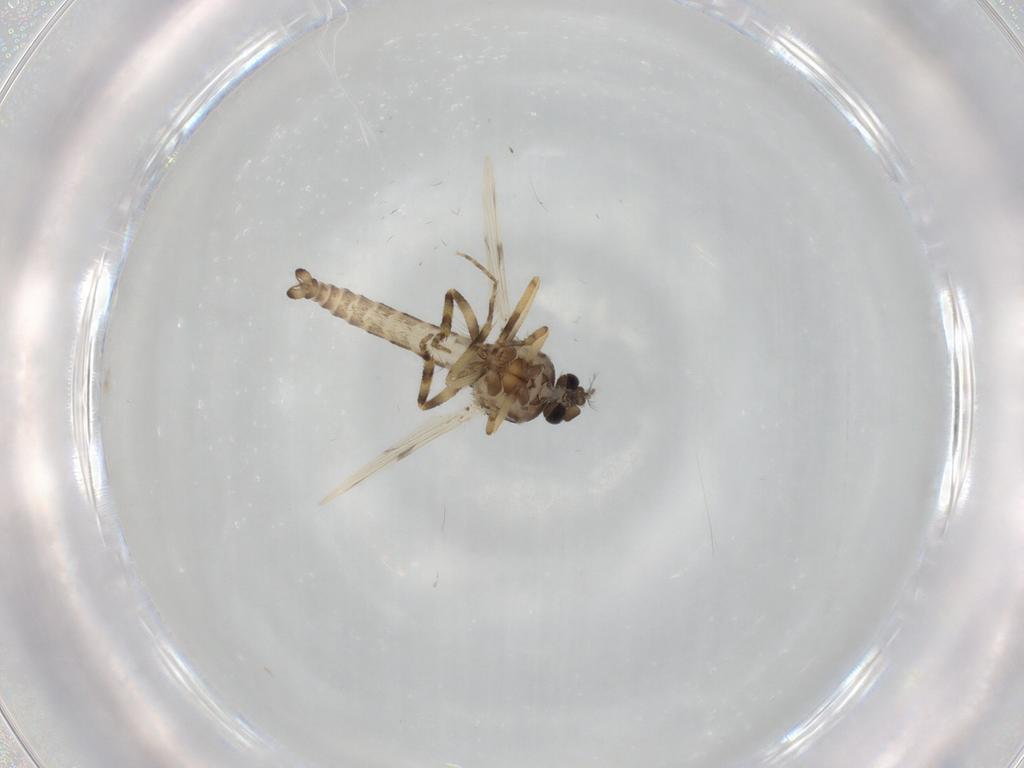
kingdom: Animalia
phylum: Arthropoda
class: Insecta
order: Diptera
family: Ceratopogonidae
